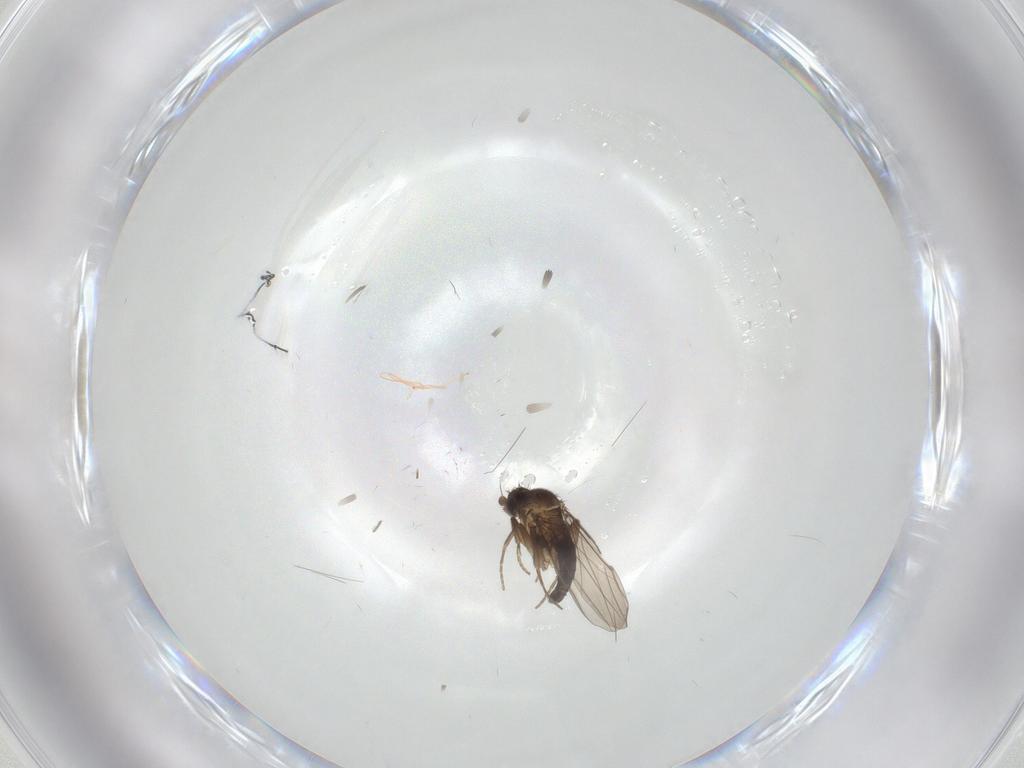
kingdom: Animalia
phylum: Arthropoda
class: Insecta
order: Diptera
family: Phoridae
